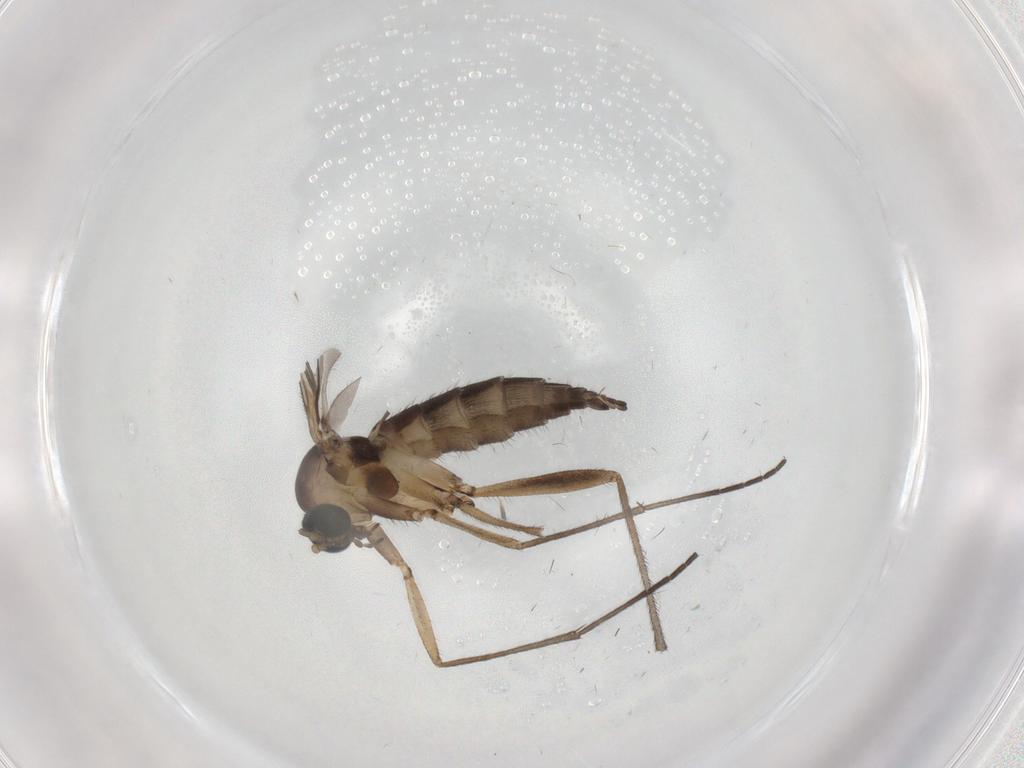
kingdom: Animalia
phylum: Arthropoda
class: Insecta
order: Diptera
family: Sciaridae
